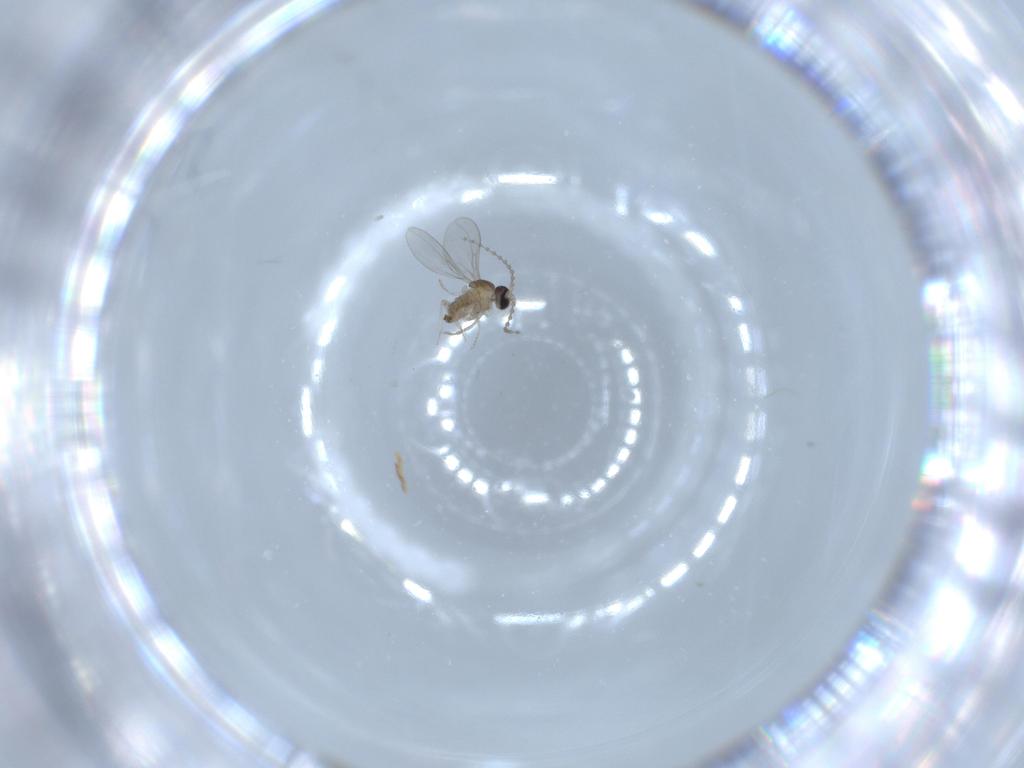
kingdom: Animalia
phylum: Arthropoda
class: Insecta
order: Diptera
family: Cecidomyiidae
